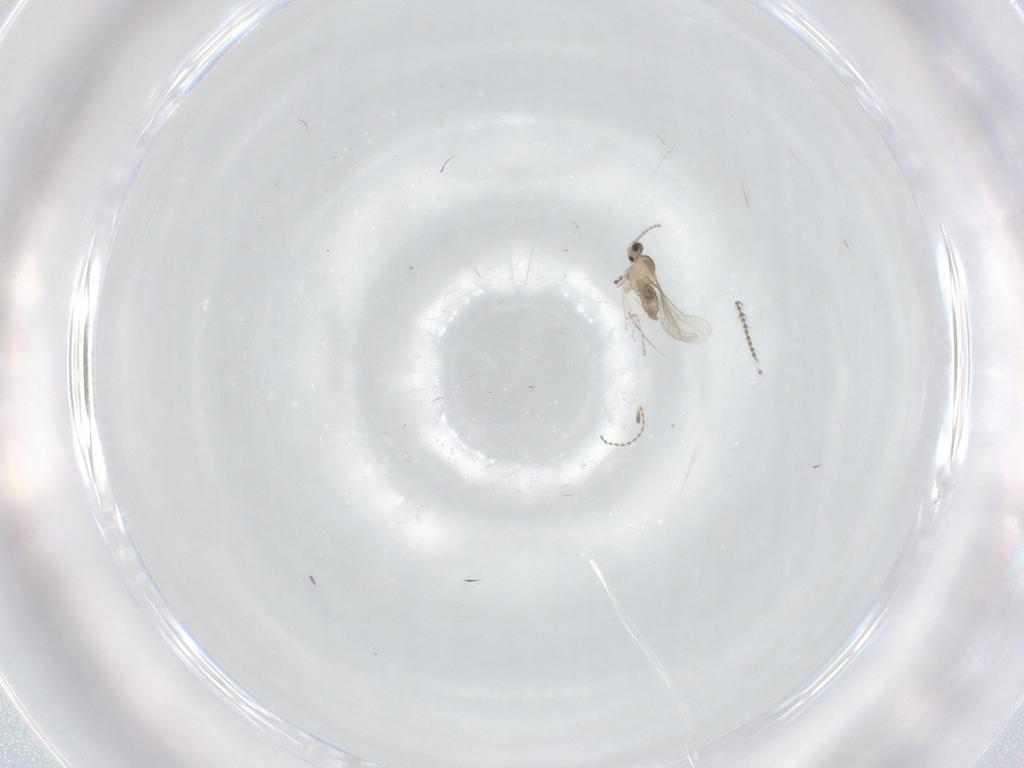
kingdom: Animalia
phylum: Arthropoda
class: Insecta
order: Diptera
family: Cecidomyiidae
